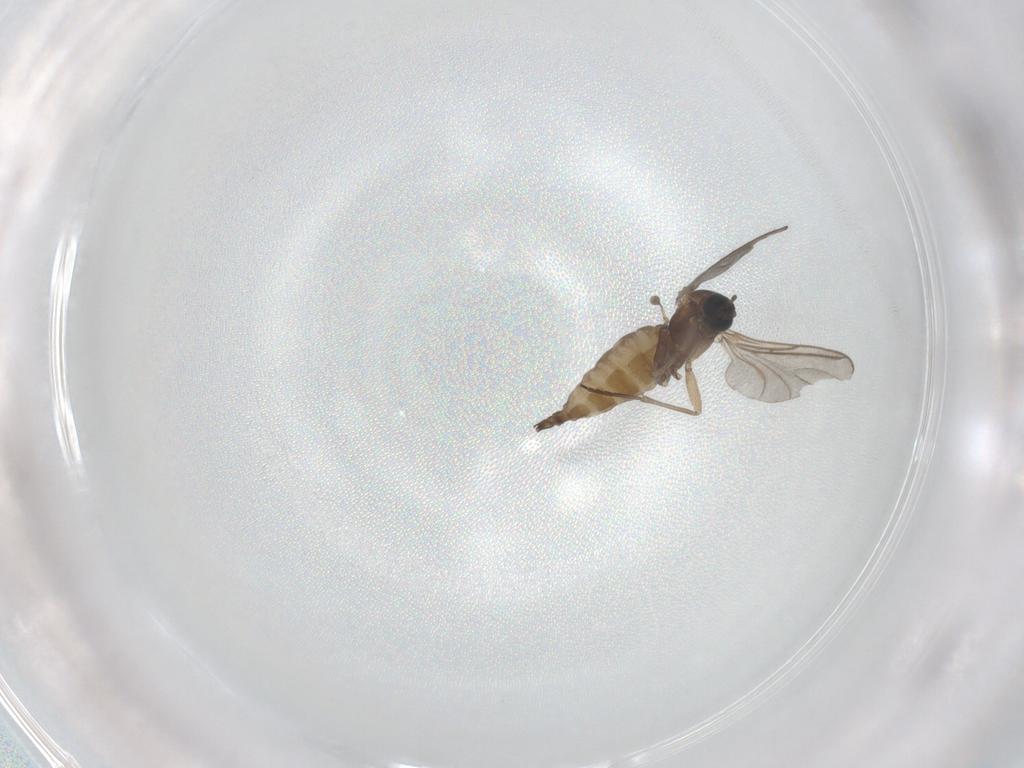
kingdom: Animalia
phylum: Arthropoda
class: Insecta
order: Diptera
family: Sciaridae
